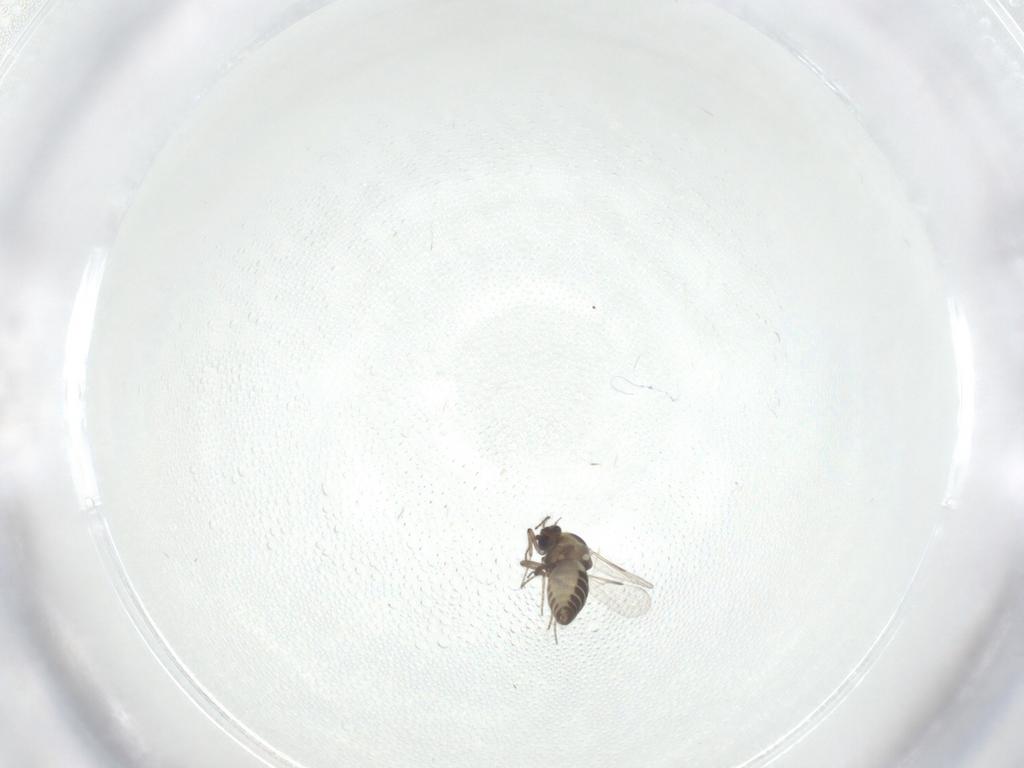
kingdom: Animalia
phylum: Arthropoda
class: Insecta
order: Diptera
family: Ceratopogonidae
